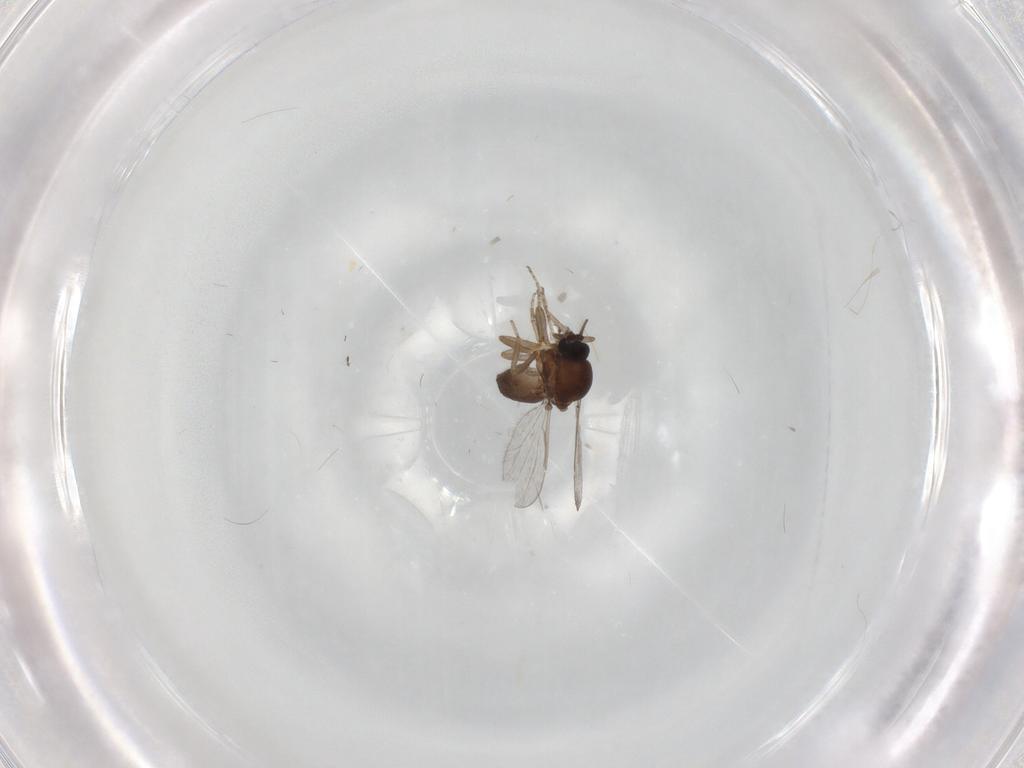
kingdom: Animalia
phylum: Arthropoda
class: Insecta
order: Diptera
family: Ceratopogonidae
